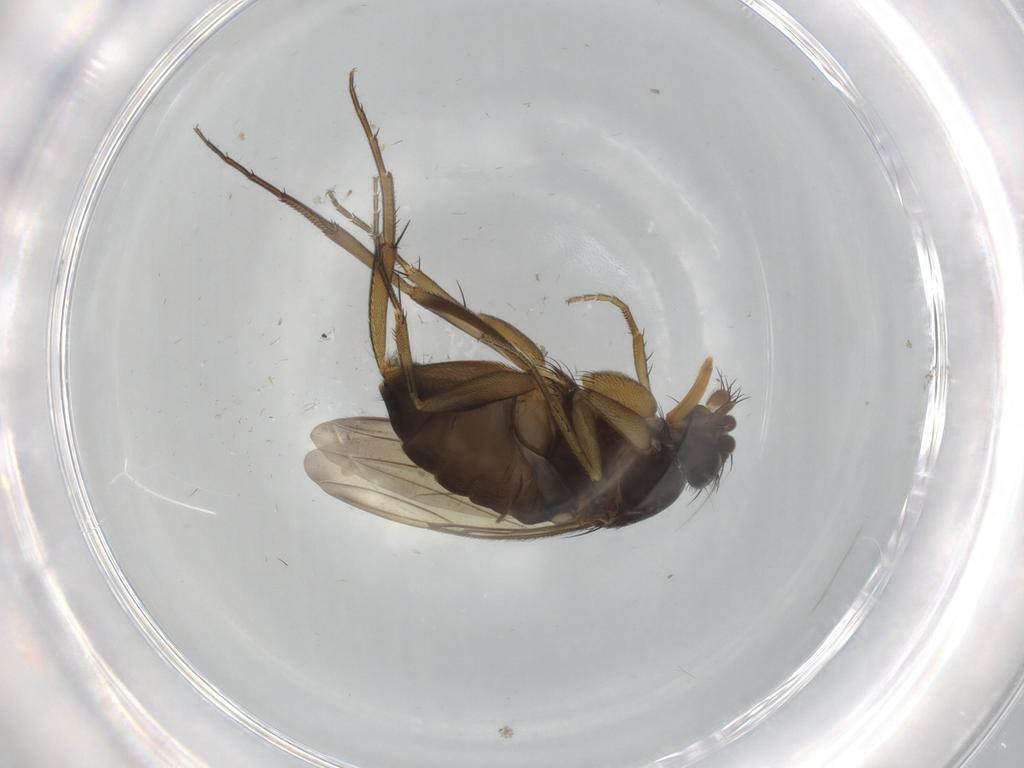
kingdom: Animalia
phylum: Arthropoda
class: Insecta
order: Diptera
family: Phoridae
